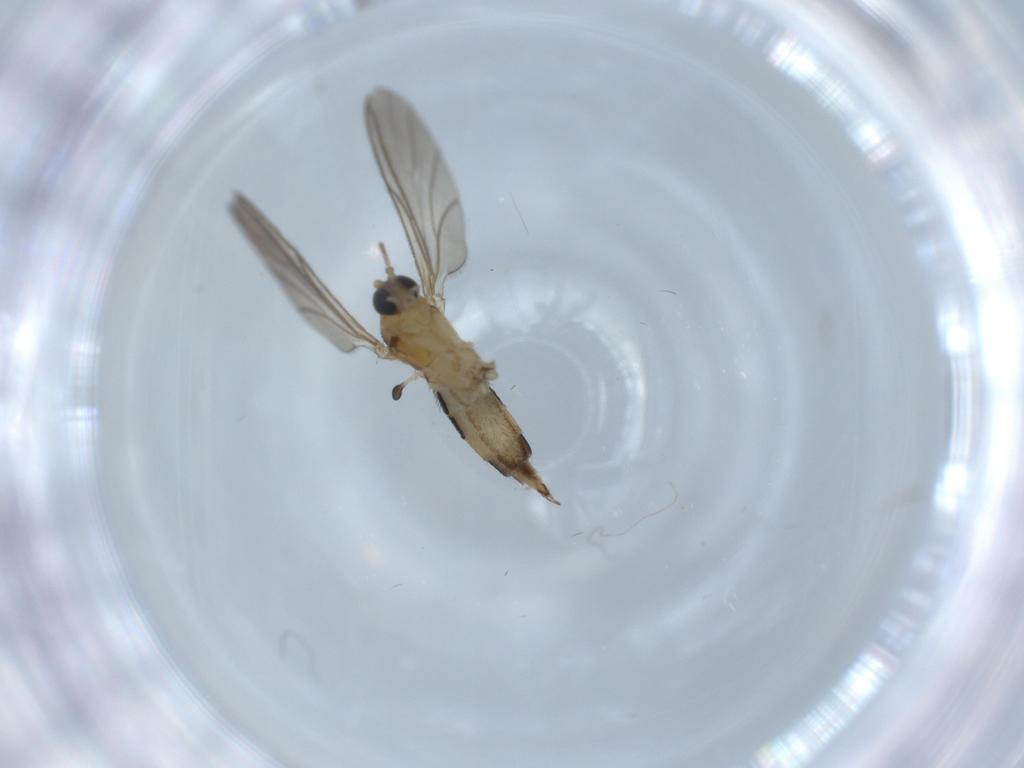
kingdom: Animalia
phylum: Arthropoda
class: Insecta
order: Diptera
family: Sciaridae
